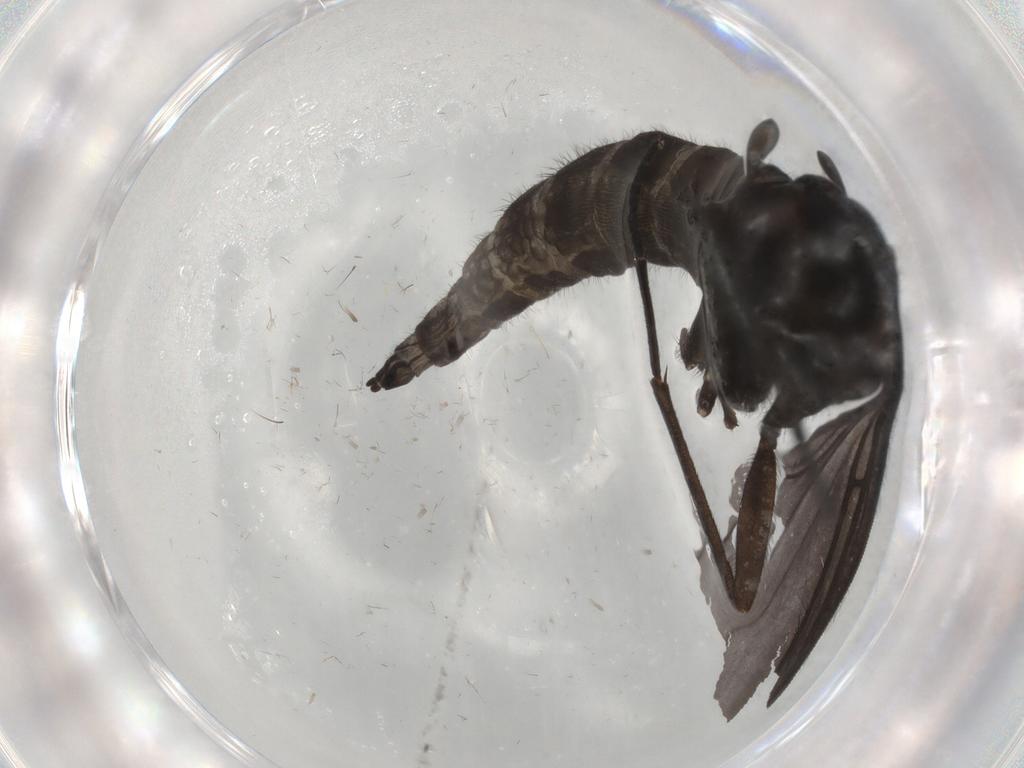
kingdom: Animalia
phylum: Arthropoda
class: Insecta
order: Diptera
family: Sciaridae
